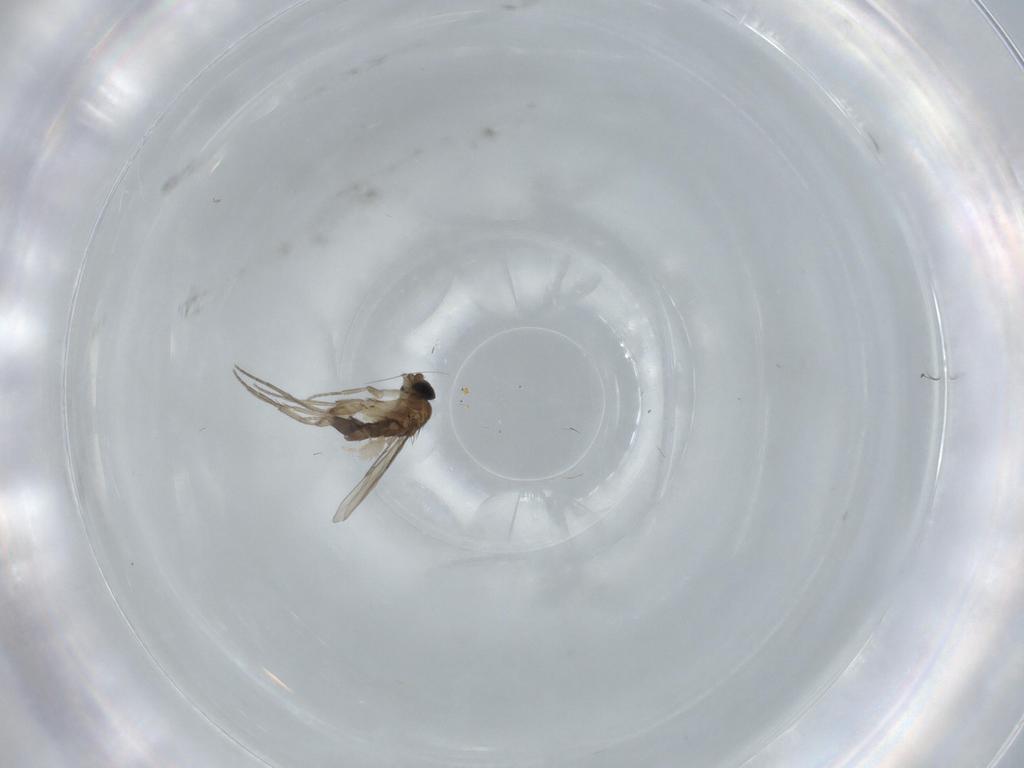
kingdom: Animalia
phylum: Arthropoda
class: Insecta
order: Diptera
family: Phoridae
